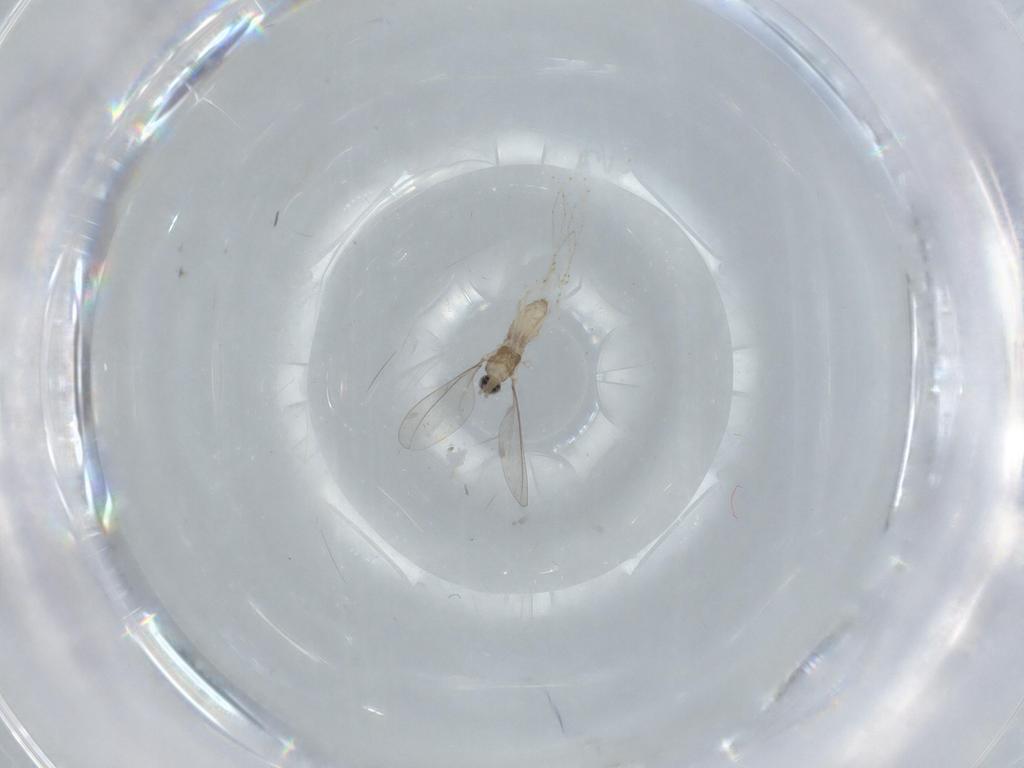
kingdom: Animalia
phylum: Arthropoda
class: Insecta
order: Diptera
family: Cecidomyiidae
